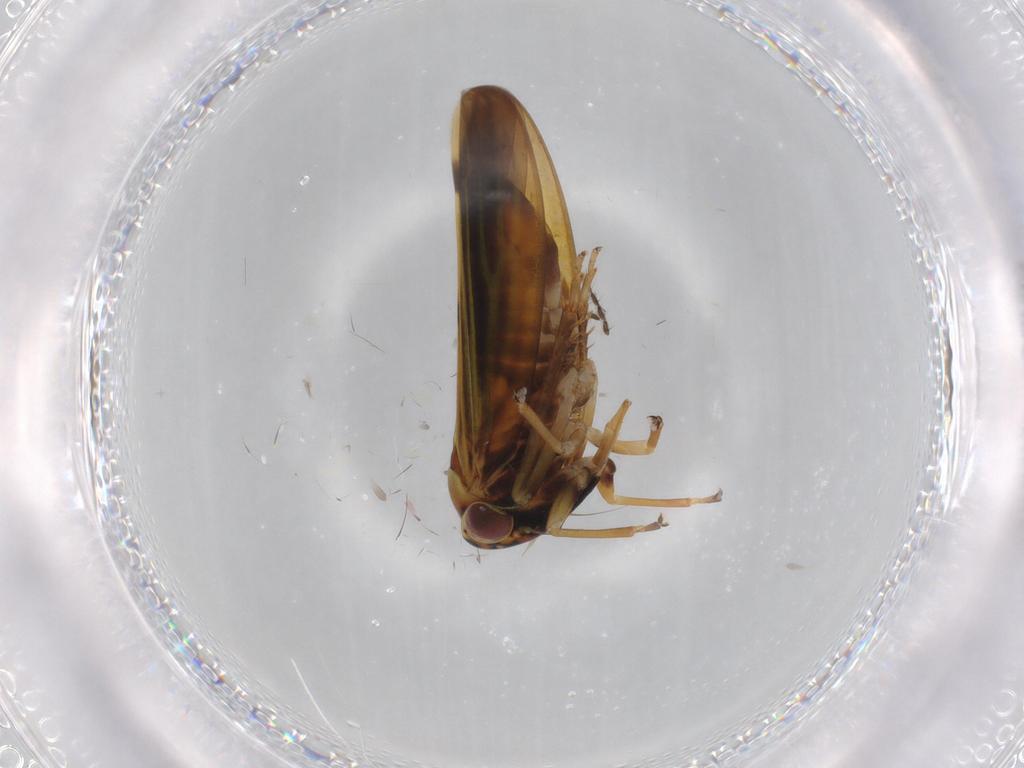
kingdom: Animalia
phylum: Arthropoda
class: Insecta
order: Hemiptera
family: Cicadellidae
